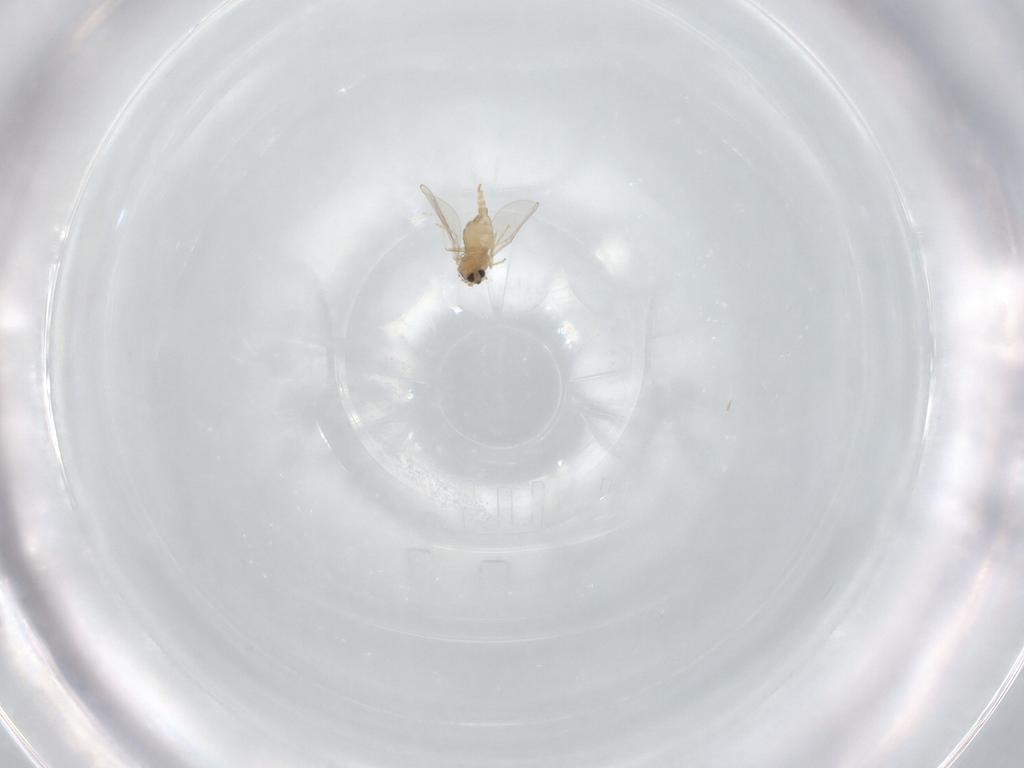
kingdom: Animalia
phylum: Arthropoda
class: Insecta
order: Diptera
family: Cecidomyiidae
